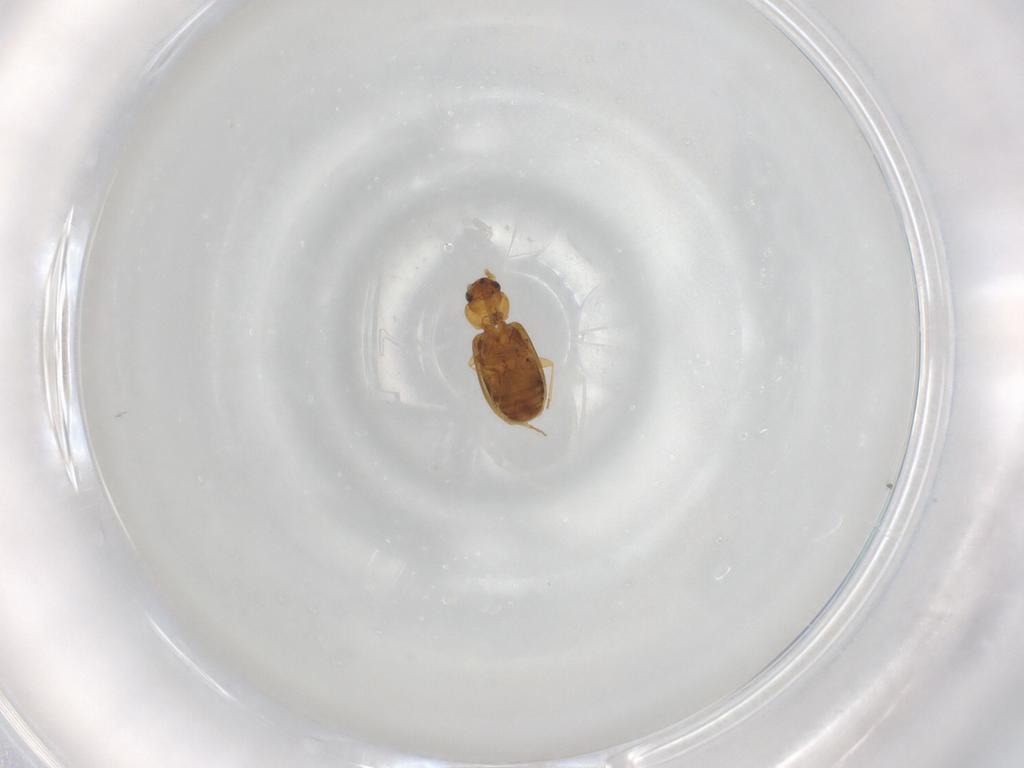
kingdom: Animalia
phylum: Arthropoda
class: Insecta
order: Coleoptera
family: Carabidae
